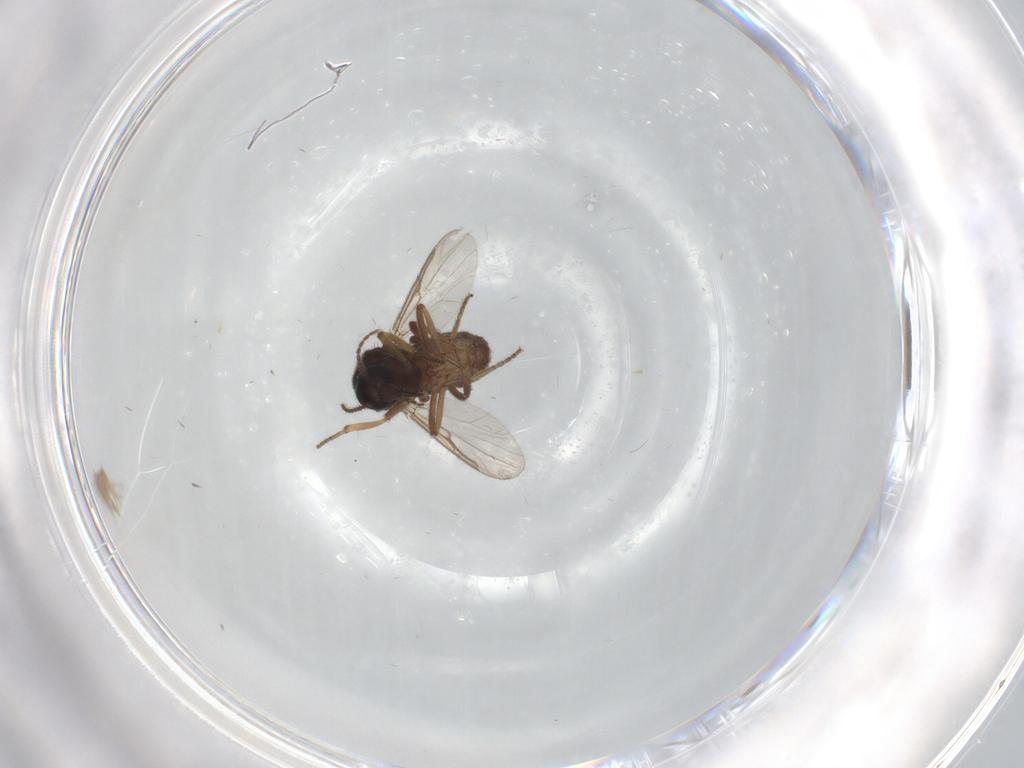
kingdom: Animalia
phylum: Arthropoda
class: Insecta
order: Diptera
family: Ceratopogonidae
